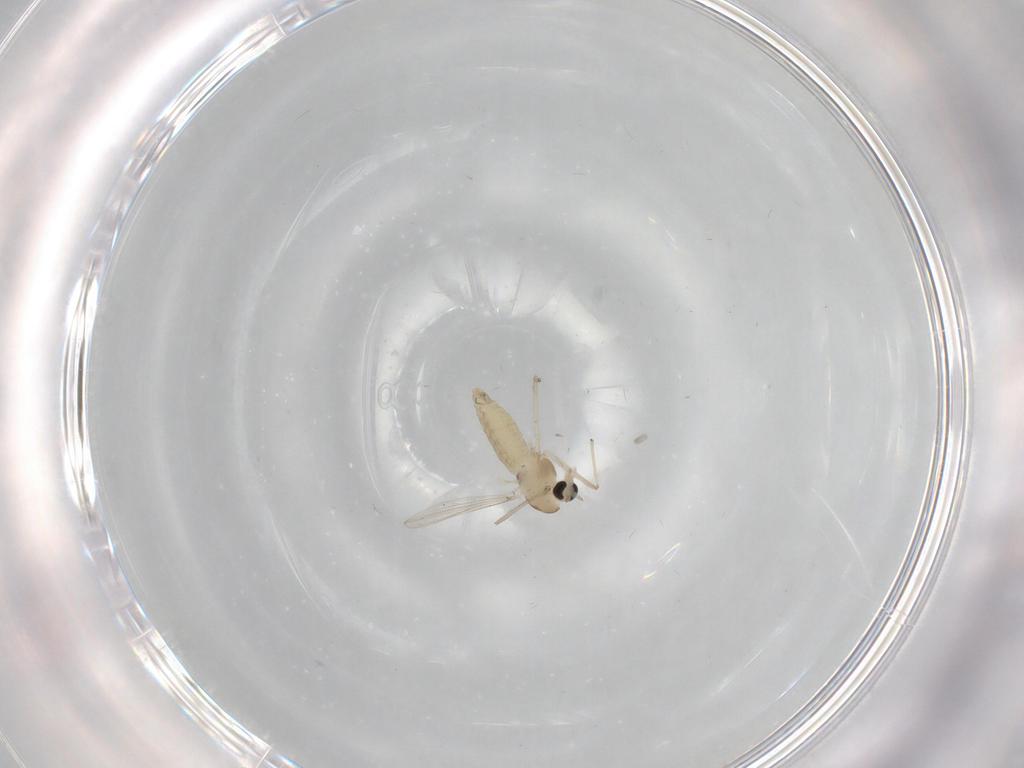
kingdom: Animalia
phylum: Arthropoda
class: Insecta
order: Diptera
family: Chironomidae
